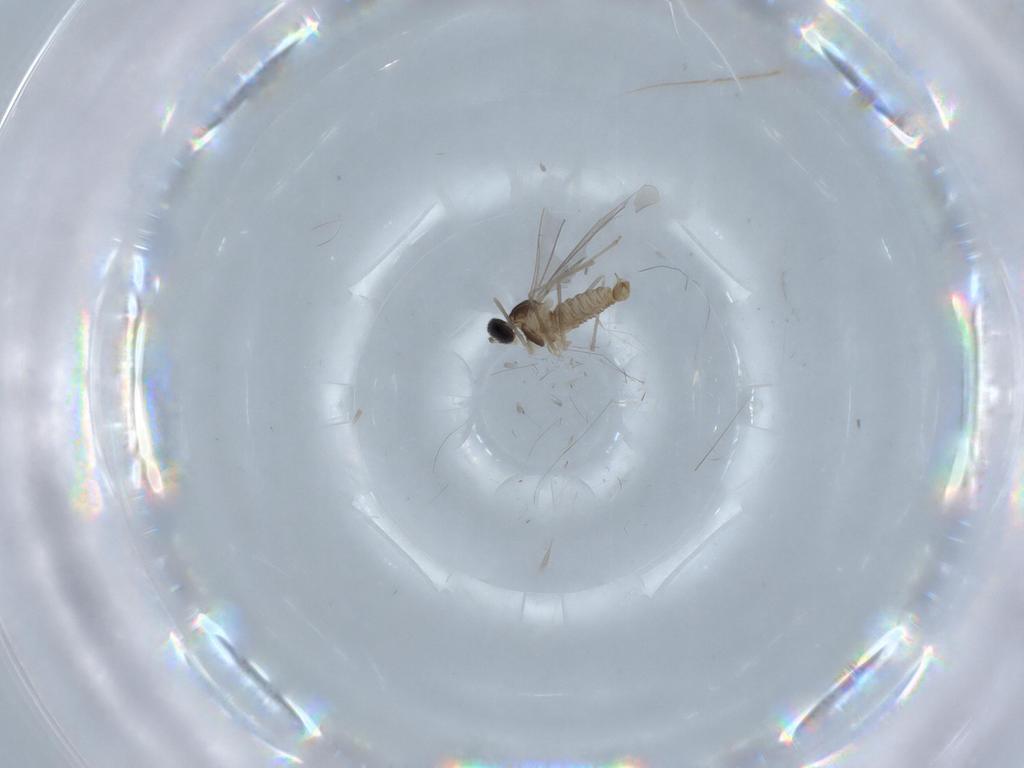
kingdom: Animalia
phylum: Arthropoda
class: Insecta
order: Diptera
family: Cecidomyiidae
